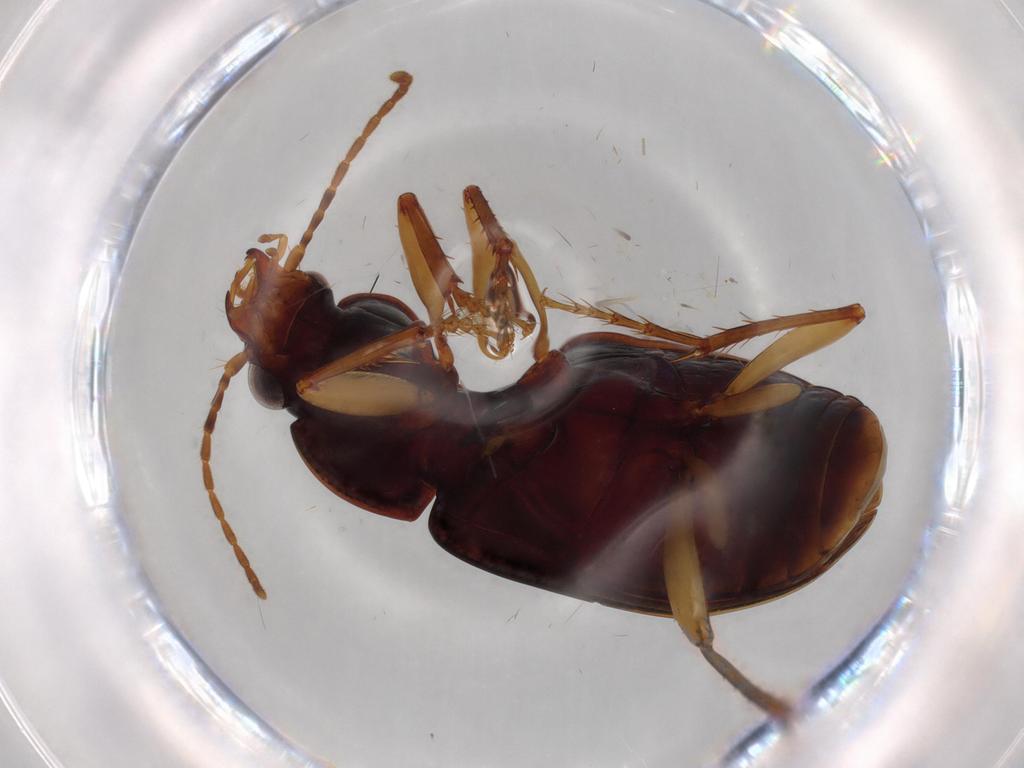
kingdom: Animalia
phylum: Arthropoda
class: Insecta
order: Coleoptera
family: Carabidae
